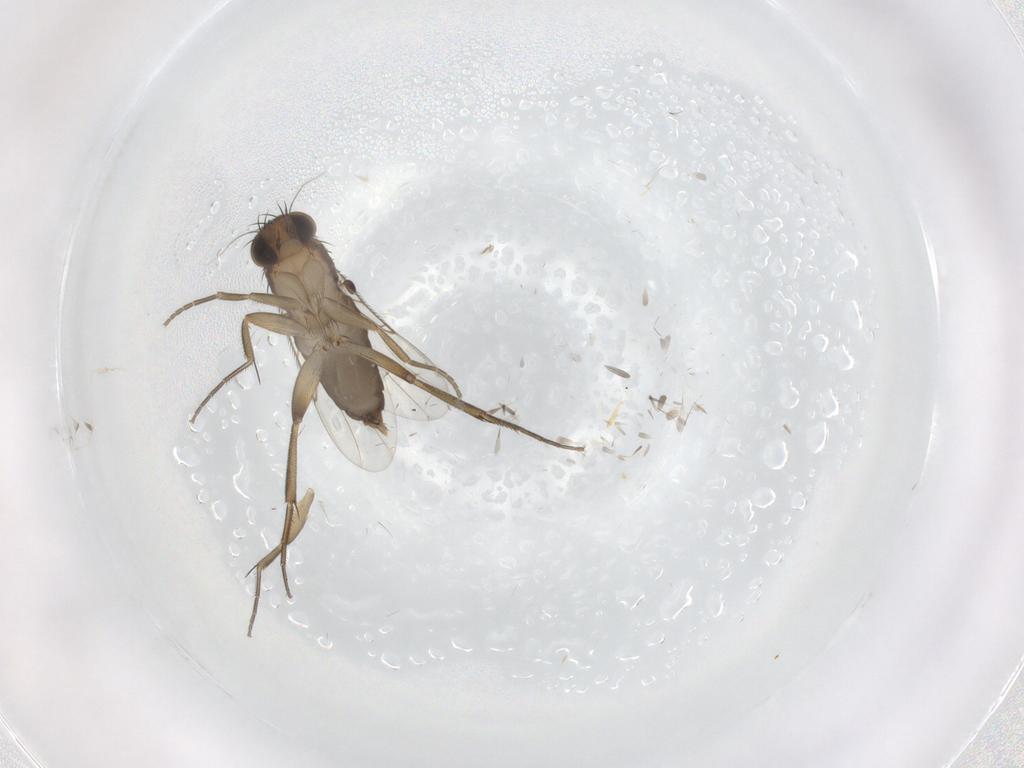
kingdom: Animalia
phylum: Arthropoda
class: Insecta
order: Diptera
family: Phoridae
